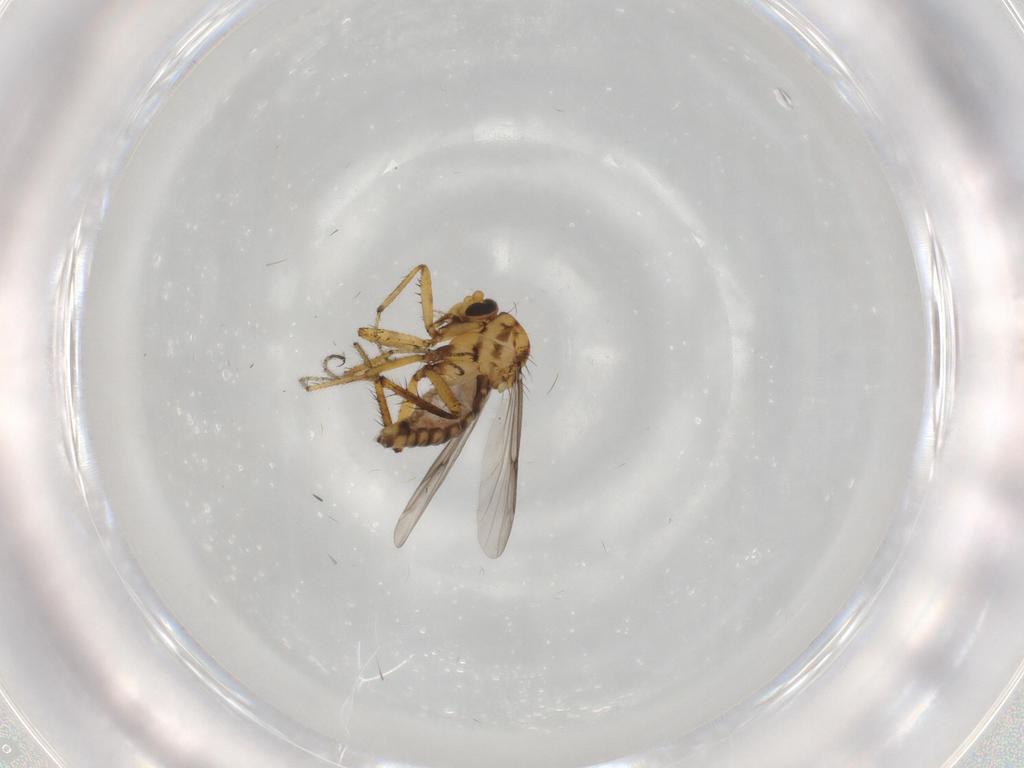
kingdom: Animalia
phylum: Arthropoda
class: Insecta
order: Diptera
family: Ceratopogonidae
